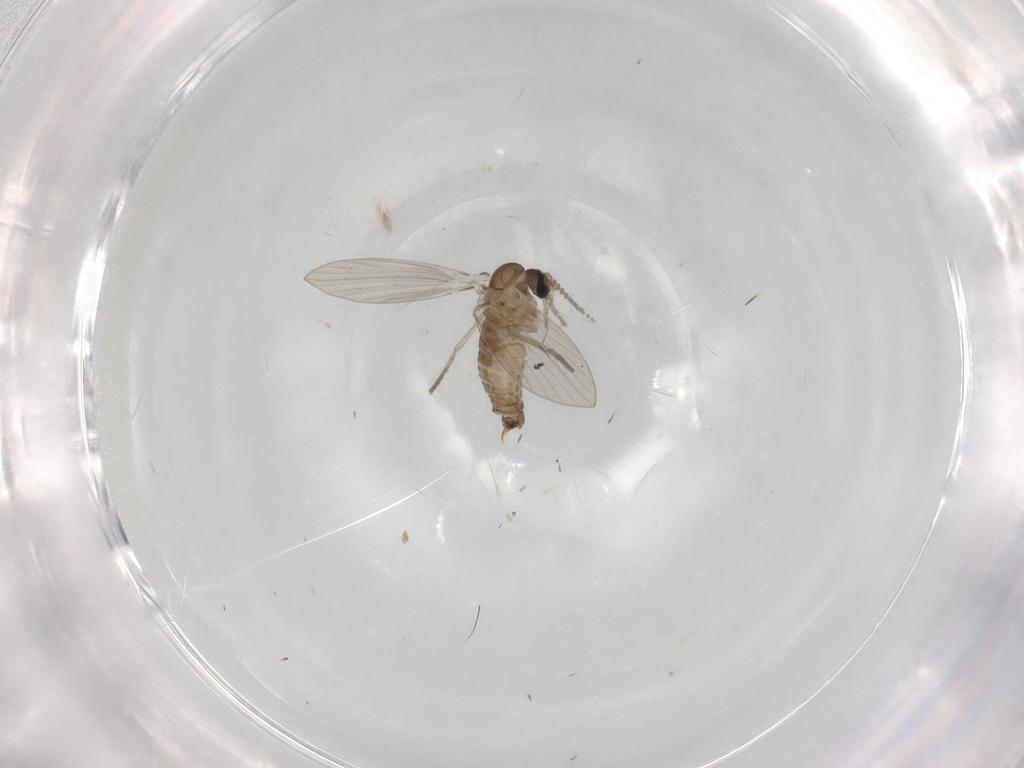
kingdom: Animalia
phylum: Arthropoda
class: Insecta
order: Diptera
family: Psychodidae
